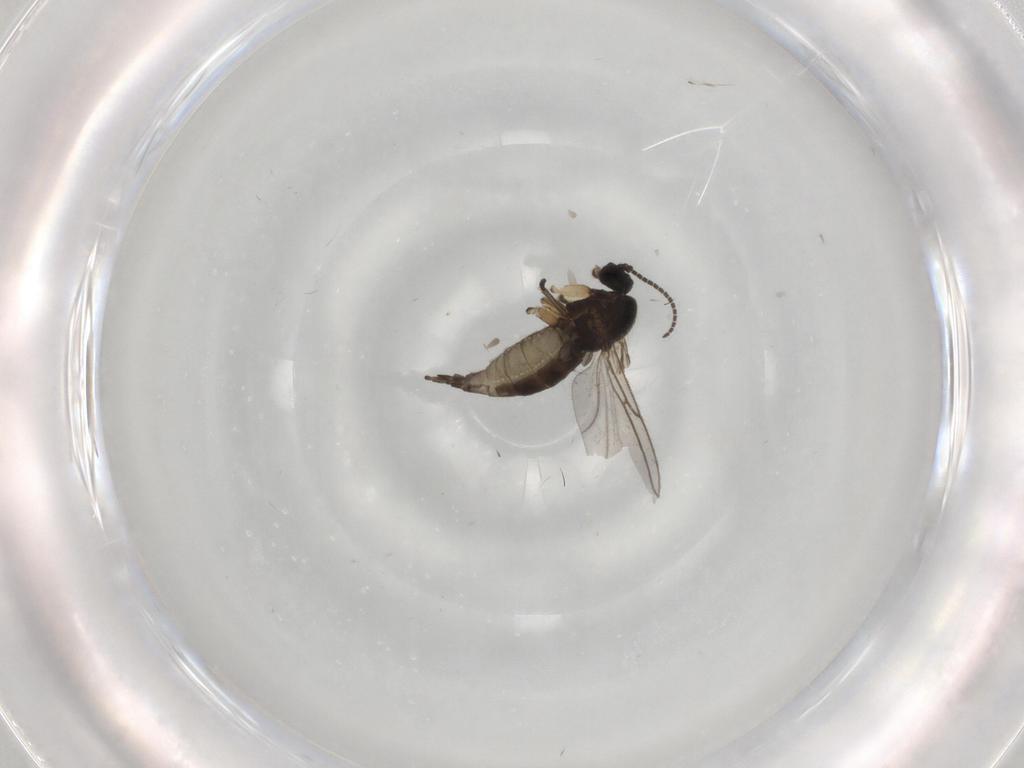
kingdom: Animalia
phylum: Arthropoda
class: Insecta
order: Diptera
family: Sciaridae
